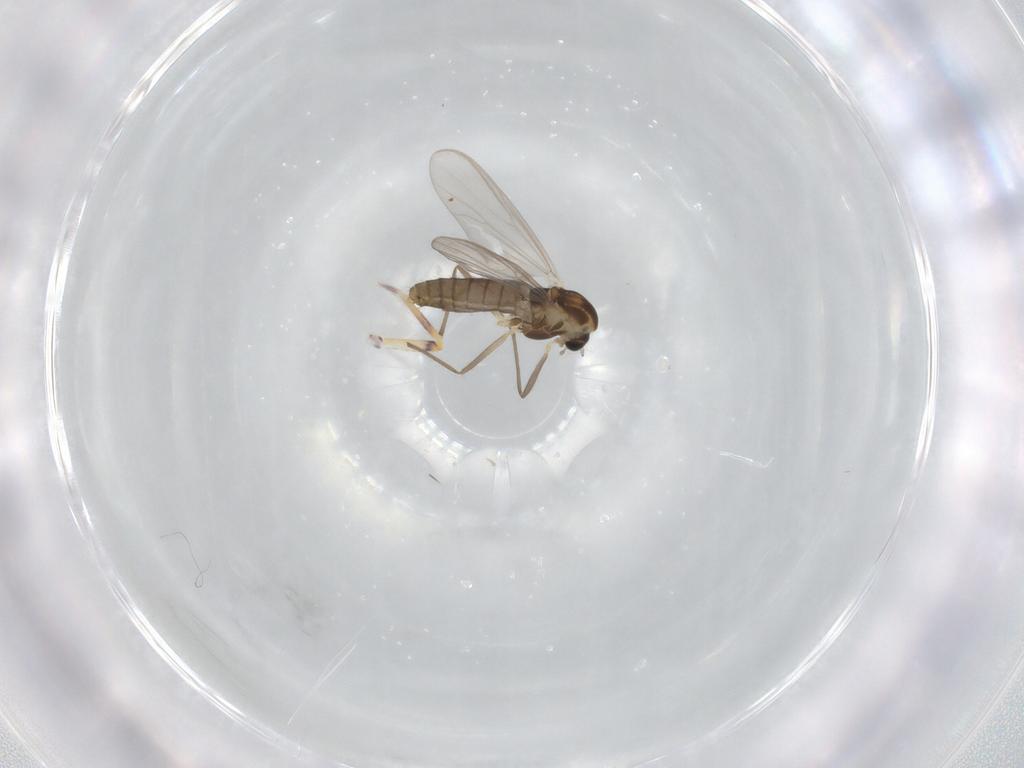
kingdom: Animalia
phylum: Arthropoda
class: Insecta
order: Diptera
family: Chironomidae
